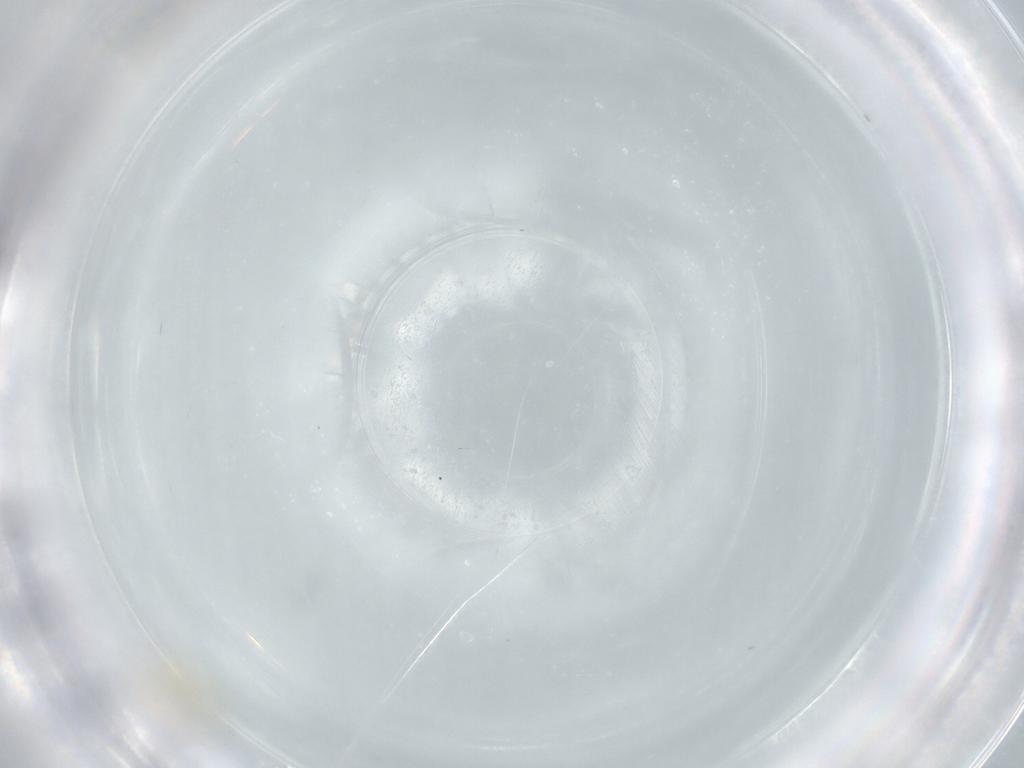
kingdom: Animalia
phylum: Arthropoda
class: Insecta
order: Diptera
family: Cecidomyiidae
